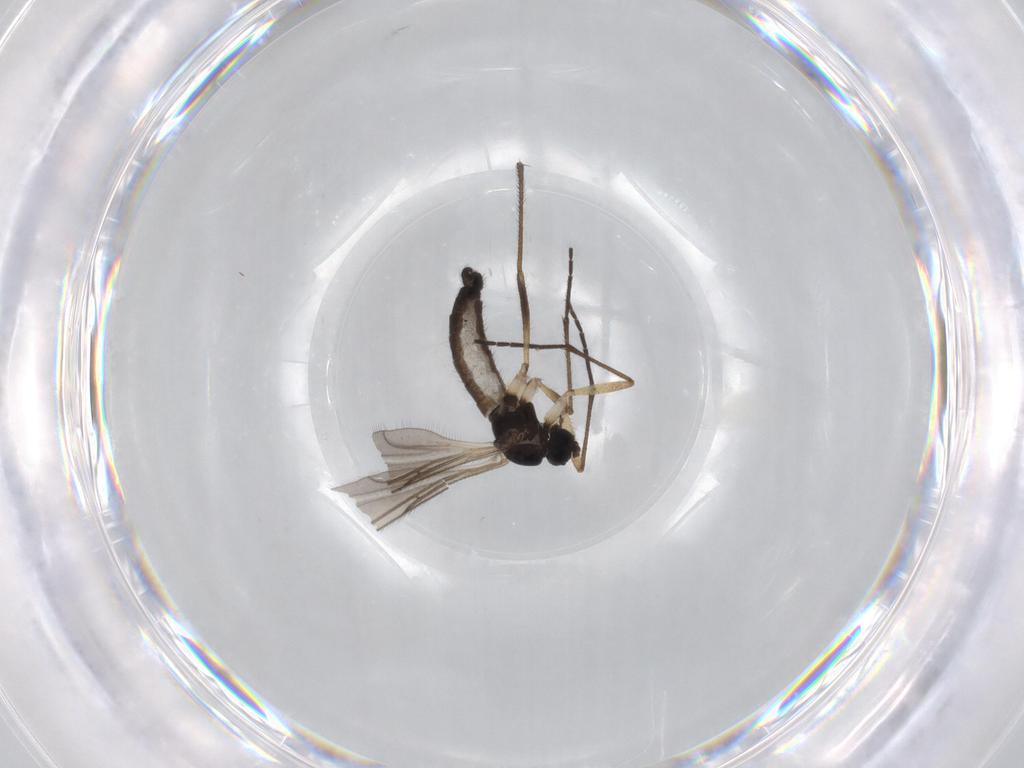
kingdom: Animalia
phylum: Arthropoda
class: Insecta
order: Diptera
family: Sciaridae
